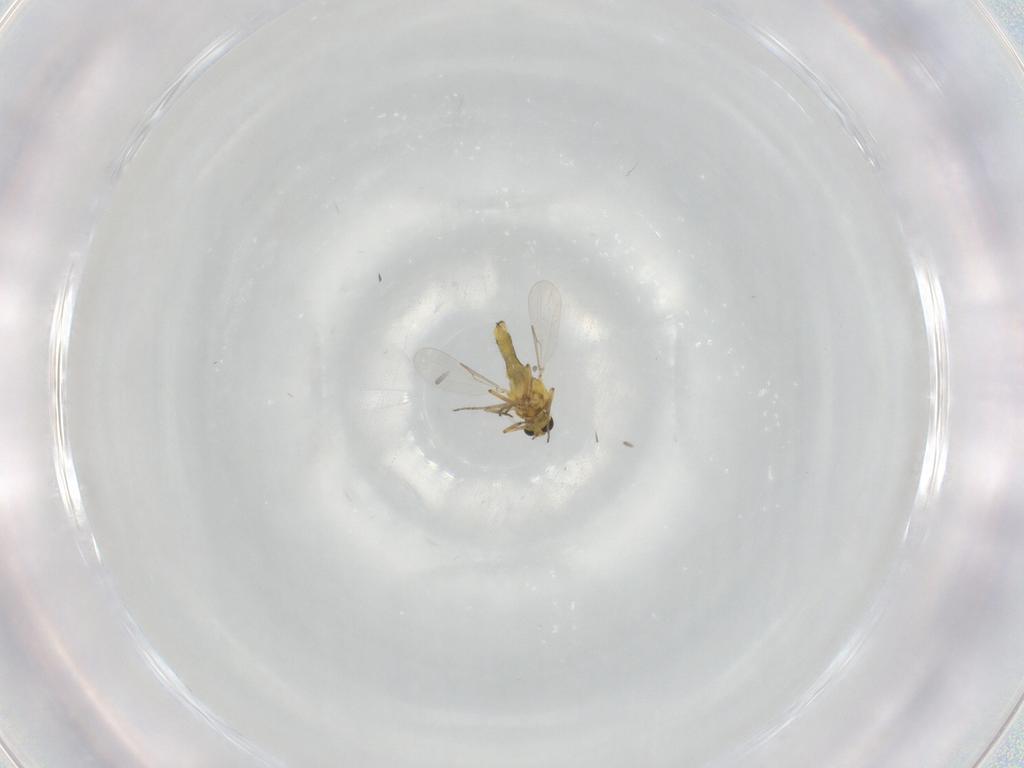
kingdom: Animalia
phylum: Arthropoda
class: Insecta
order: Diptera
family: Ceratopogonidae
